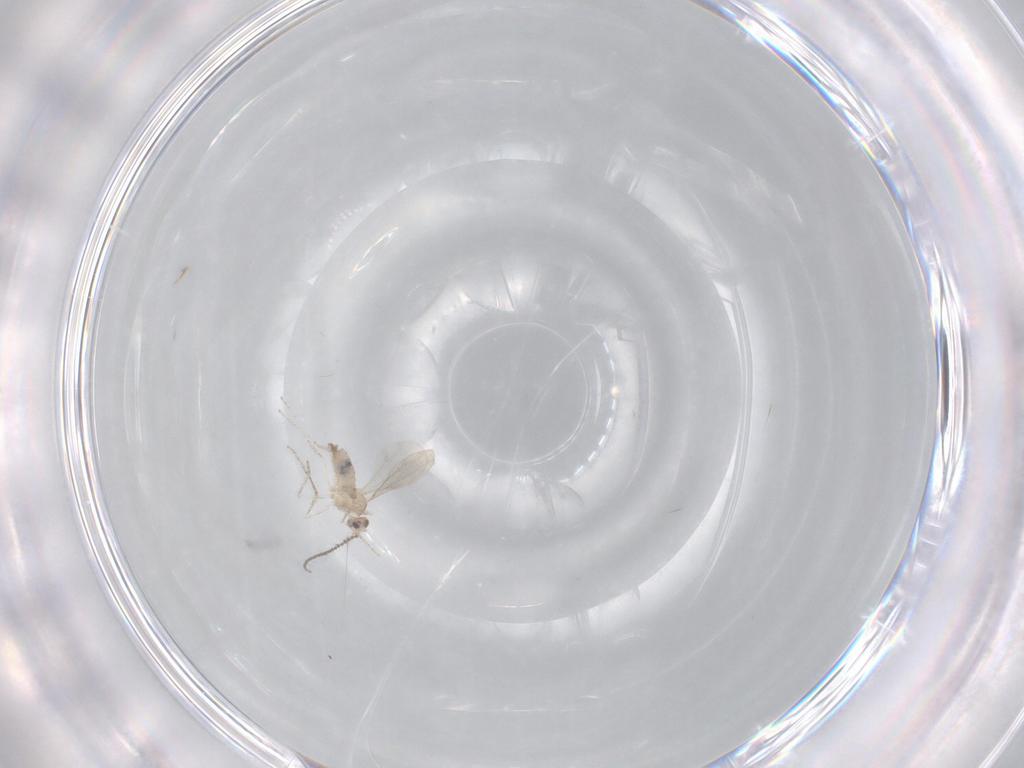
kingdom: Animalia
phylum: Arthropoda
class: Insecta
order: Diptera
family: Cecidomyiidae
